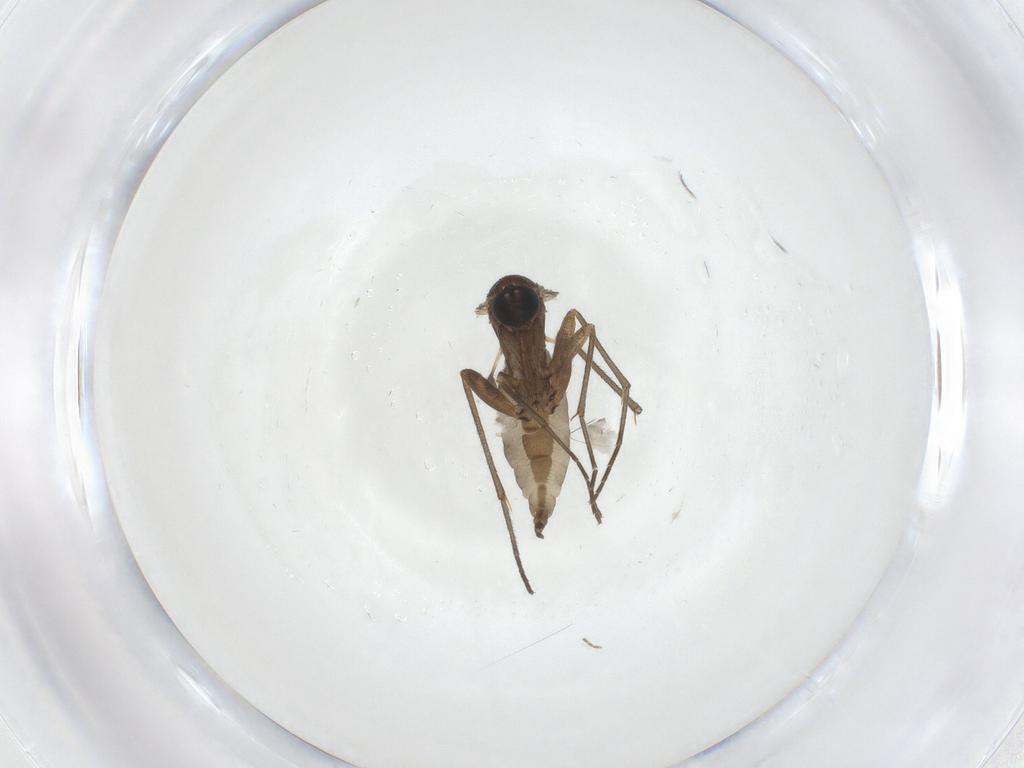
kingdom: Animalia
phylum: Arthropoda
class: Insecta
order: Diptera
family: Sciaridae
